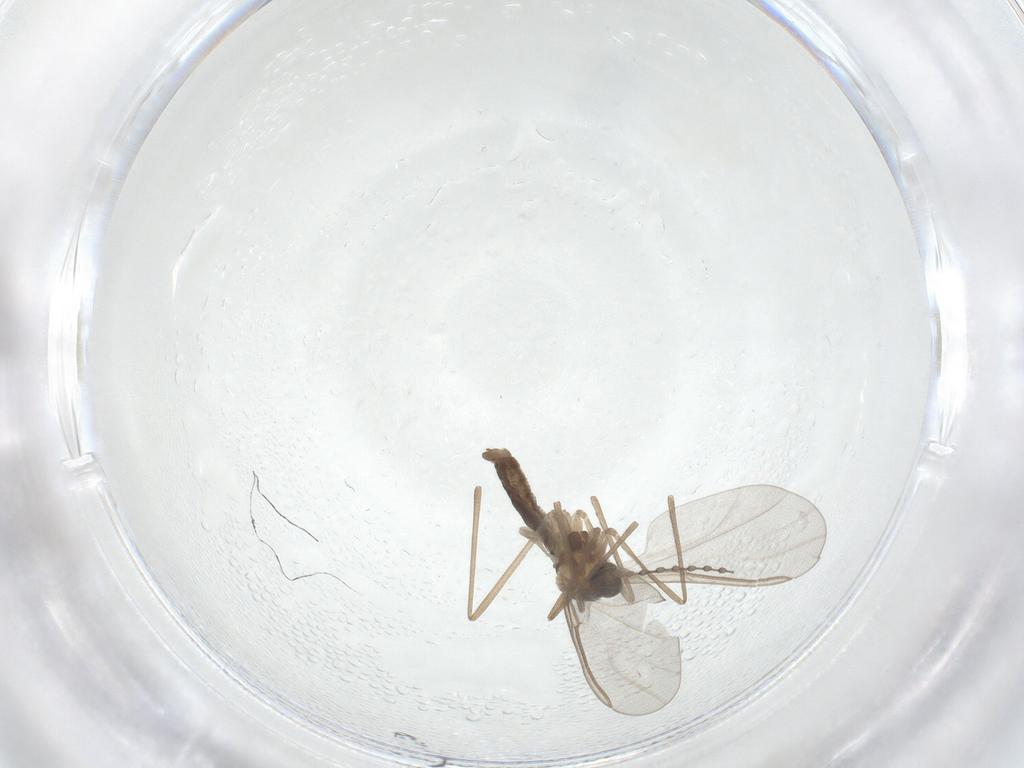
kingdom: Animalia
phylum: Arthropoda
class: Insecta
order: Diptera
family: Cecidomyiidae
